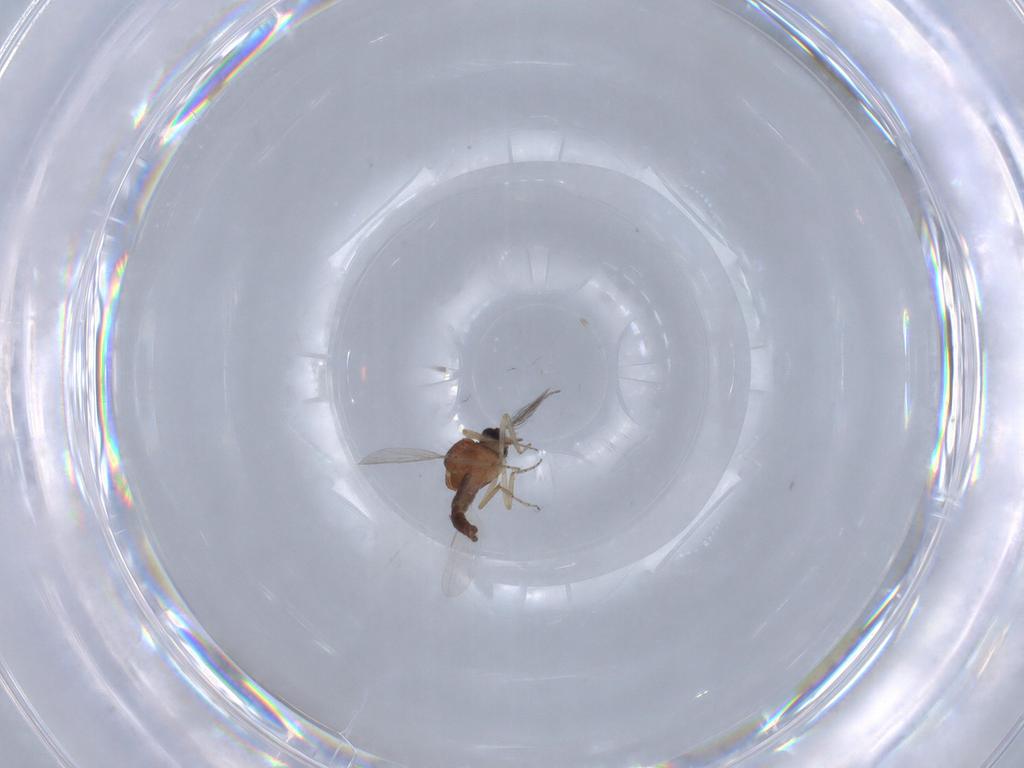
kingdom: Animalia
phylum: Arthropoda
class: Insecta
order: Diptera
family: Ceratopogonidae
